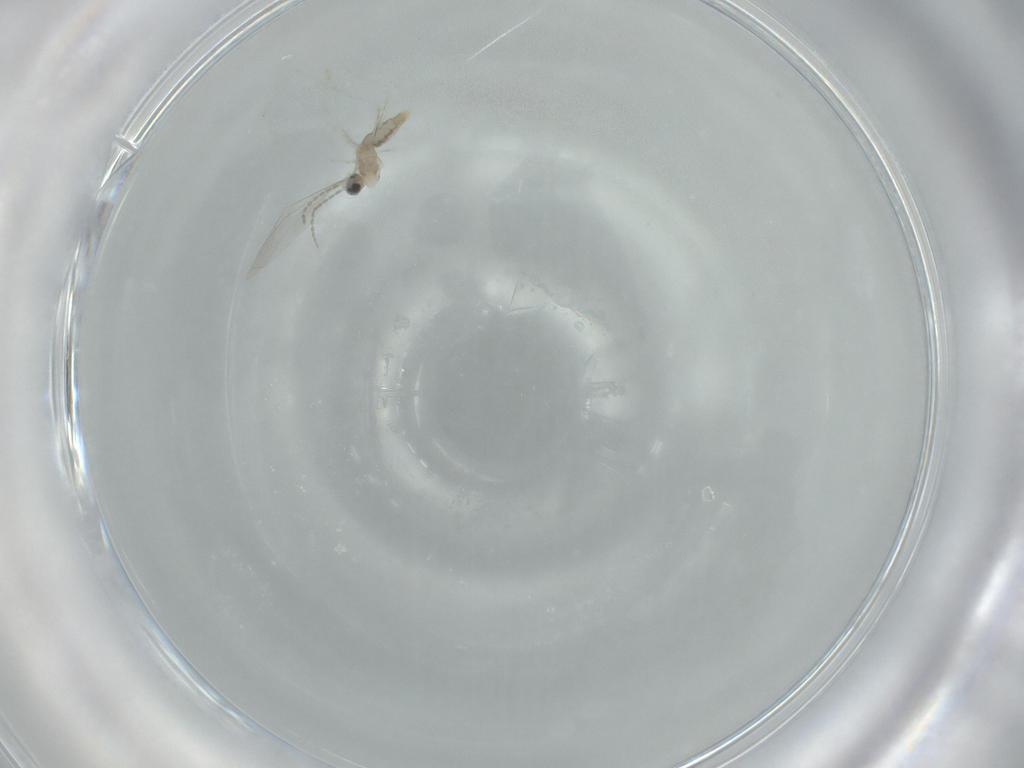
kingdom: Animalia
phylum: Arthropoda
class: Insecta
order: Diptera
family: Cecidomyiidae
